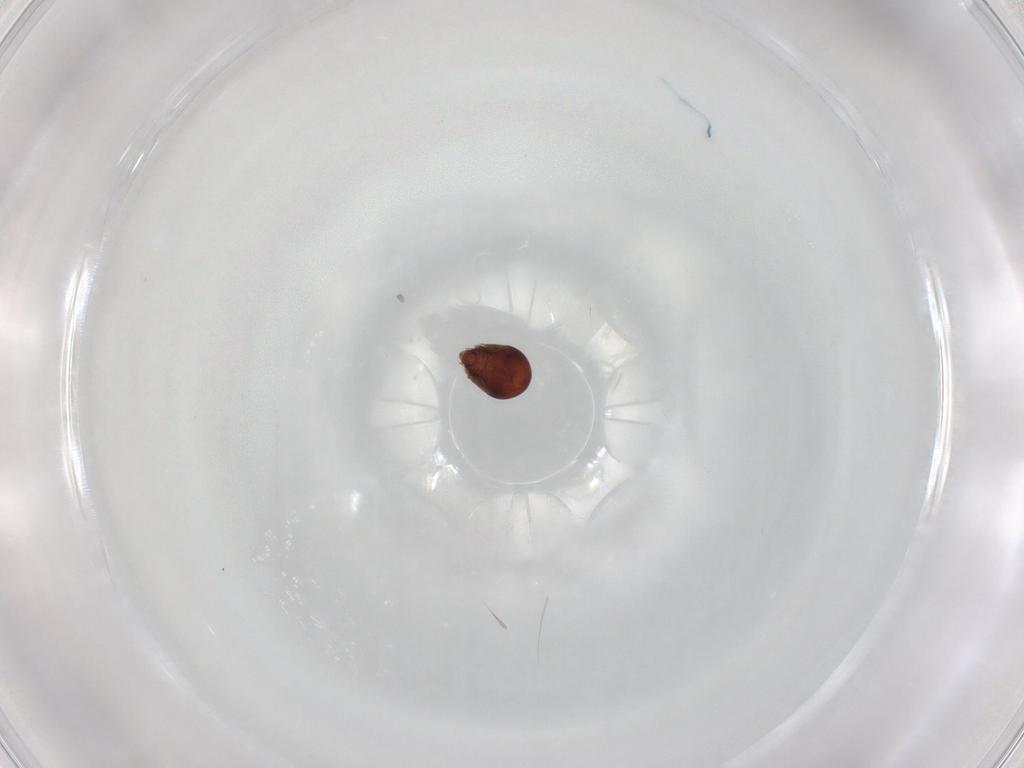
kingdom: Animalia
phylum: Arthropoda
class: Arachnida
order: Sarcoptiformes
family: Humerobatidae
